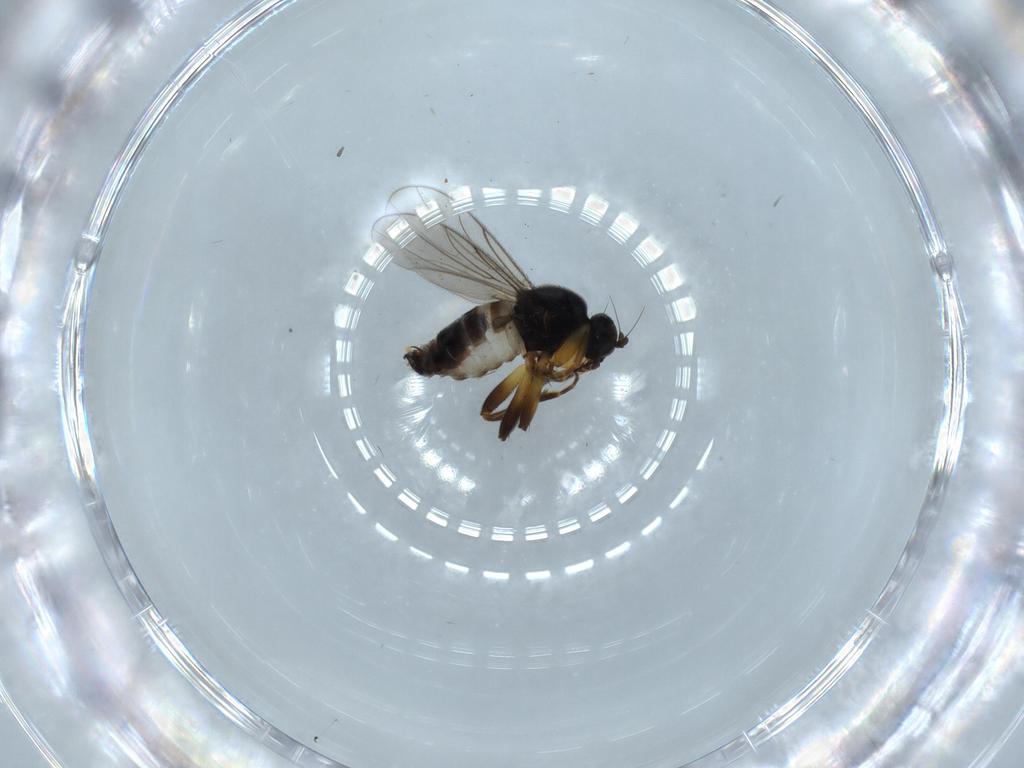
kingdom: Animalia
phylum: Arthropoda
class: Insecta
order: Diptera
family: Hybotidae
